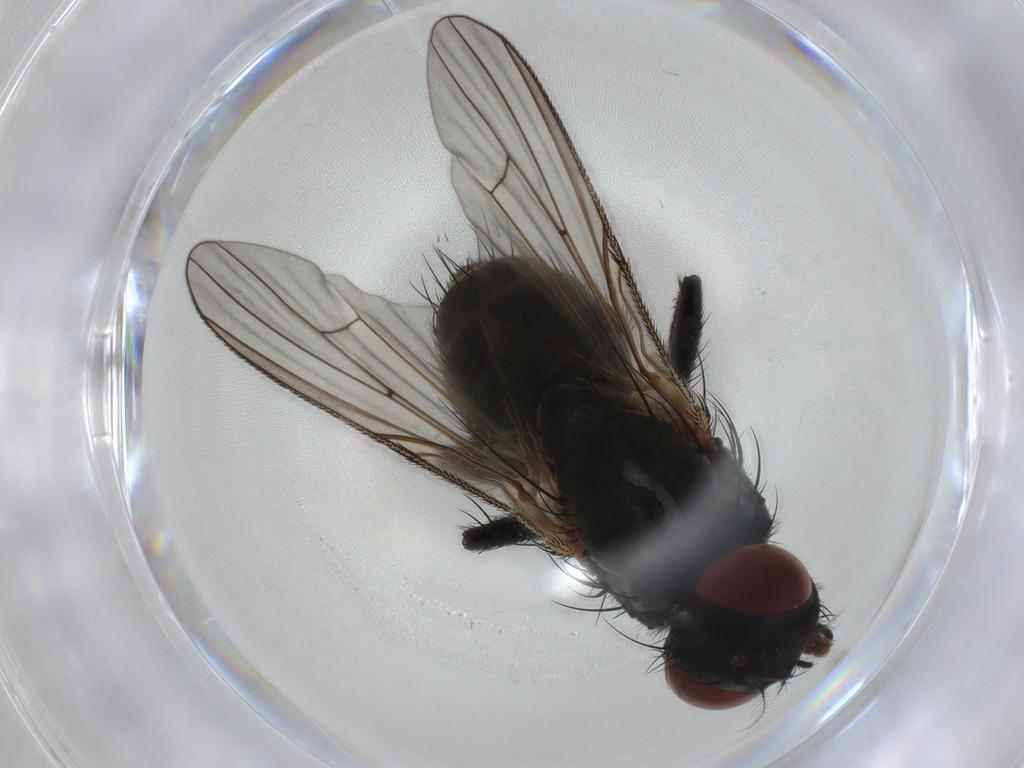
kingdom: Animalia
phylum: Arthropoda
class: Insecta
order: Diptera
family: Muscidae
